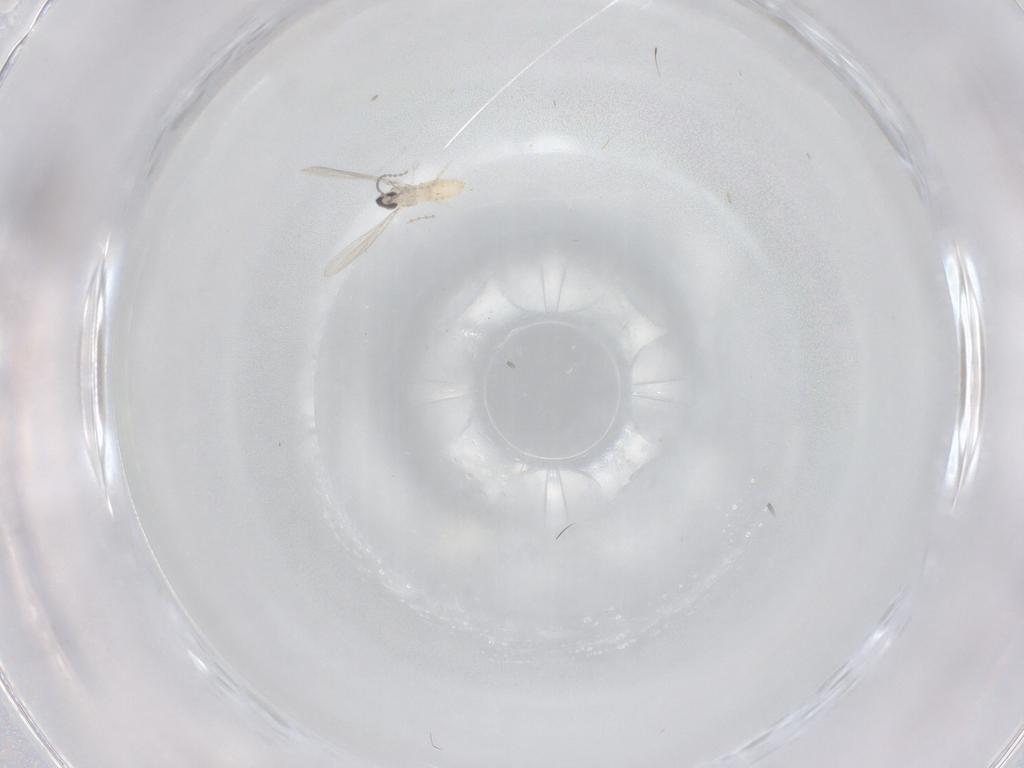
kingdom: Animalia
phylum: Arthropoda
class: Insecta
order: Diptera
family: Cecidomyiidae
